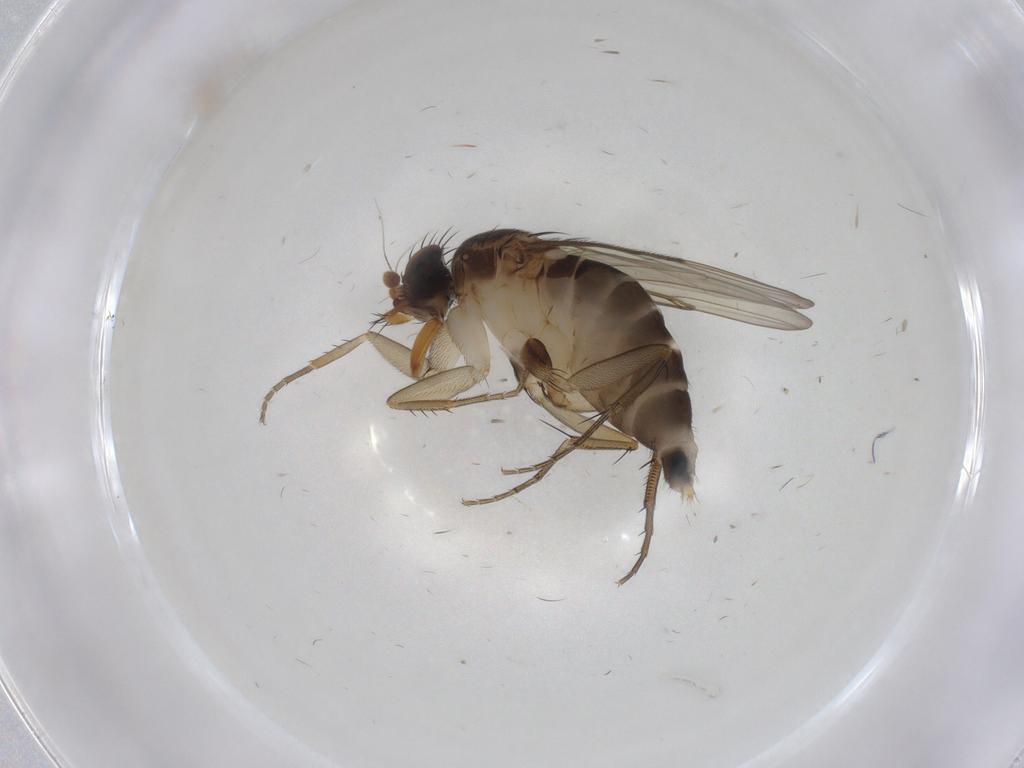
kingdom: Animalia
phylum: Arthropoda
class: Insecta
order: Diptera
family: Phoridae
